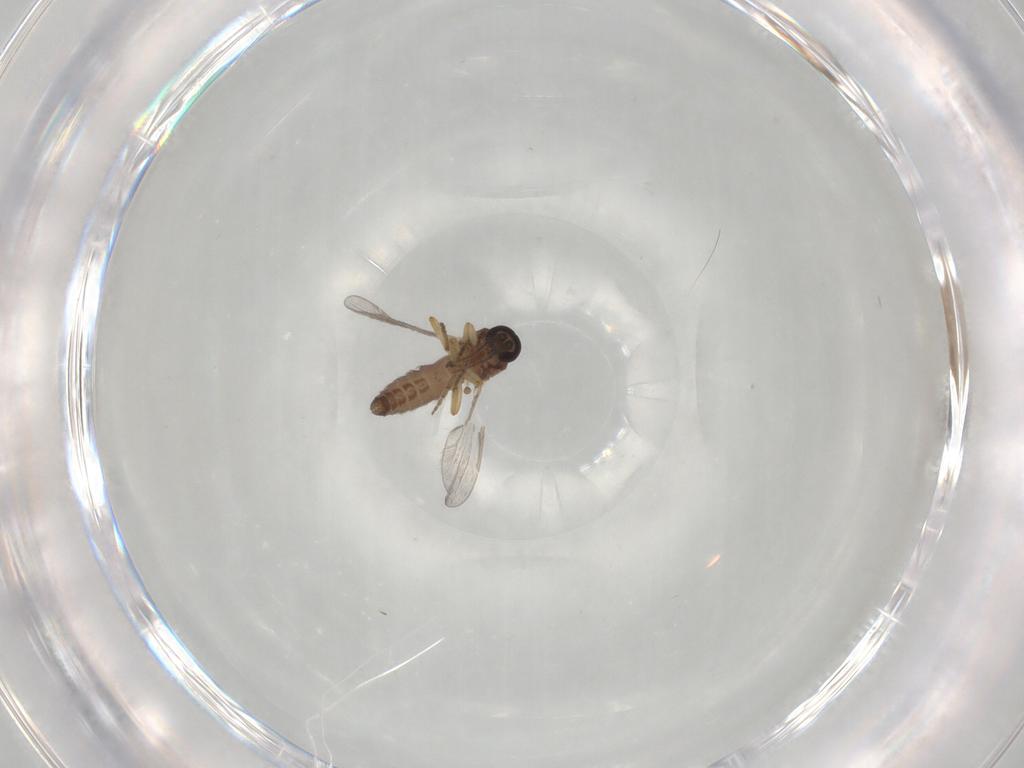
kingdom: Animalia
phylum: Arthropoda
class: Insecta
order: Diptera
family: Ceratopogonidae
